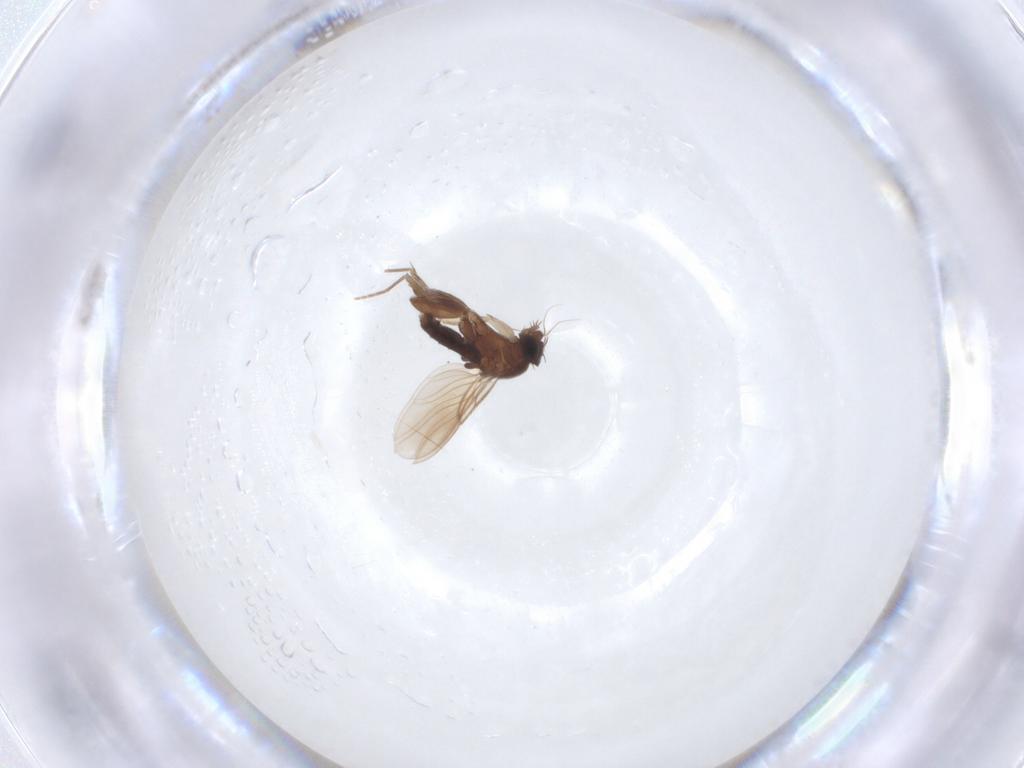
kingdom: Animalia
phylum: Arthropoda
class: Insecta
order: Diptera
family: Phoridae
